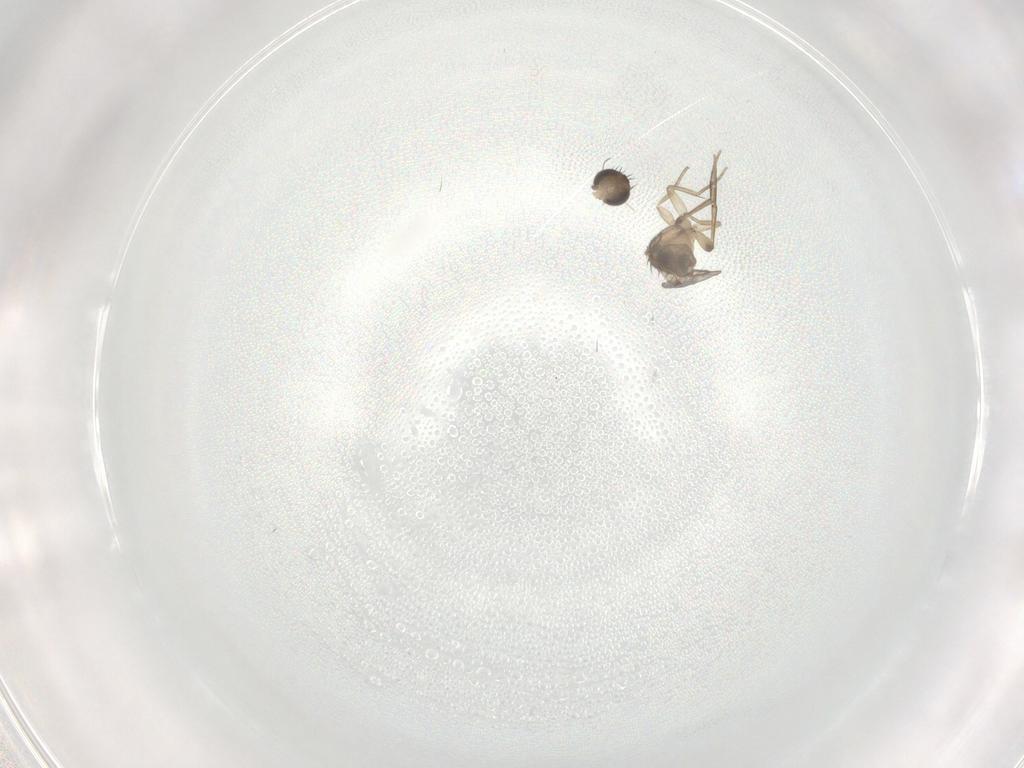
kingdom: Animalia
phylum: Arthropoda
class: Insecta
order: Diptera
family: Phoridae
